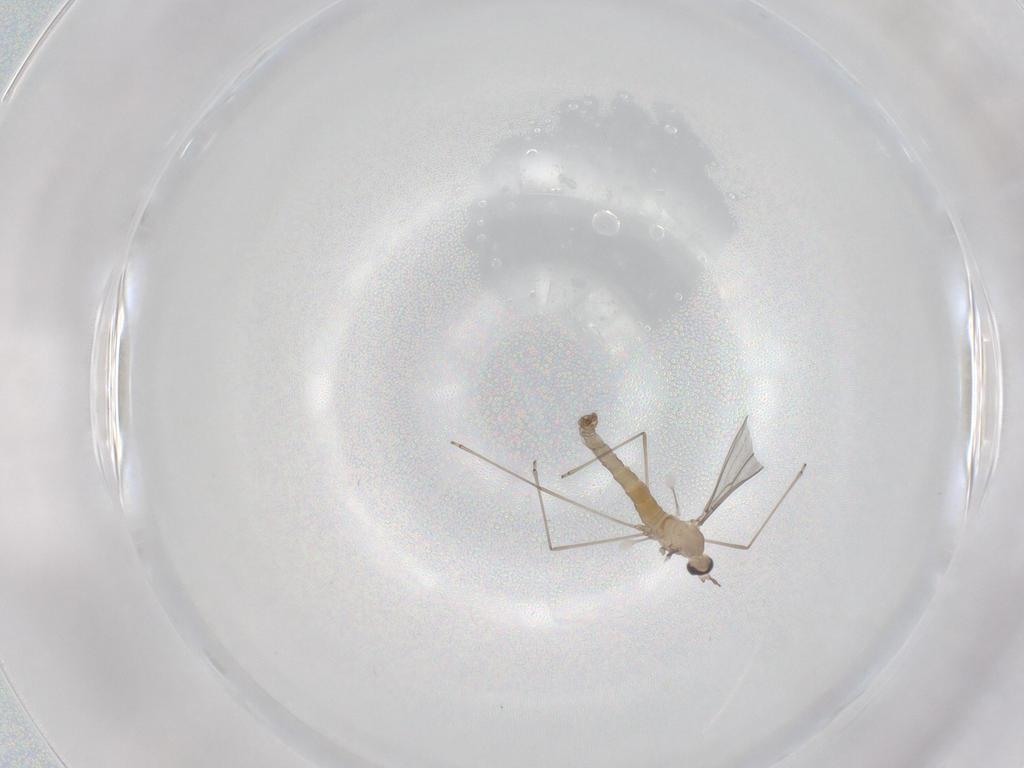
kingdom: Animalia
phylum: Arthropoda
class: Insecta
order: Diptera
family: Cecidomyiidae
